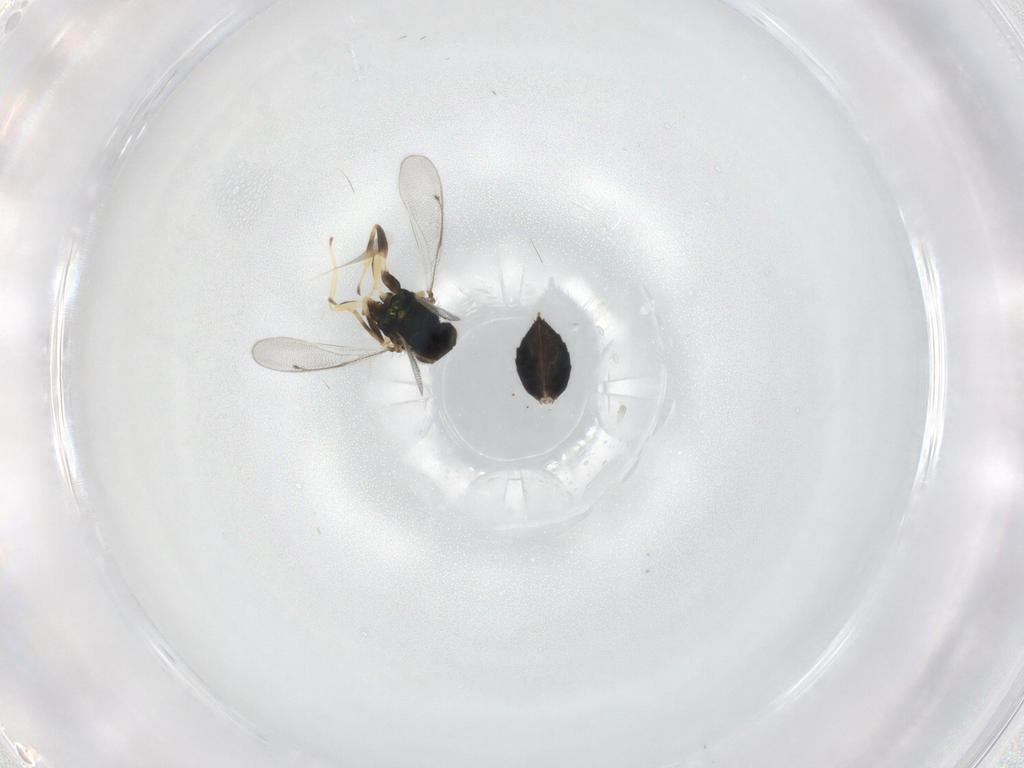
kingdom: Animalia
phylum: Arthropoda
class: Insecta
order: Hymenoptera
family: Eulophidae
